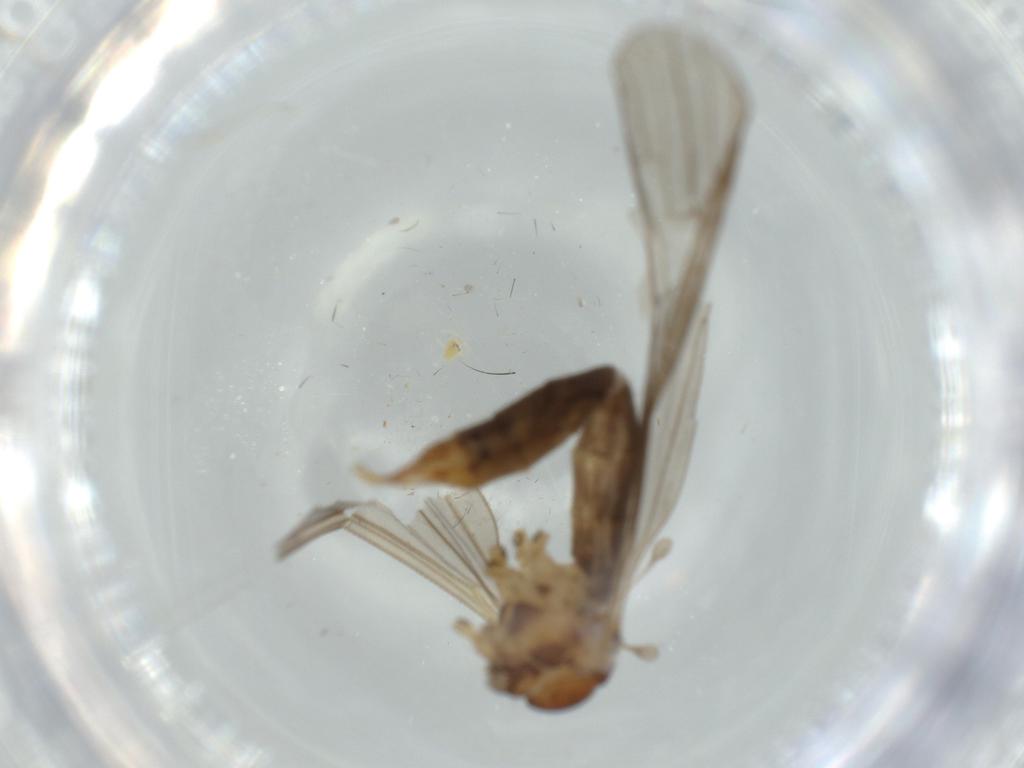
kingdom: Animalia
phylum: Arthropoda
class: Insecta
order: Diptera
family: Limoniidae
